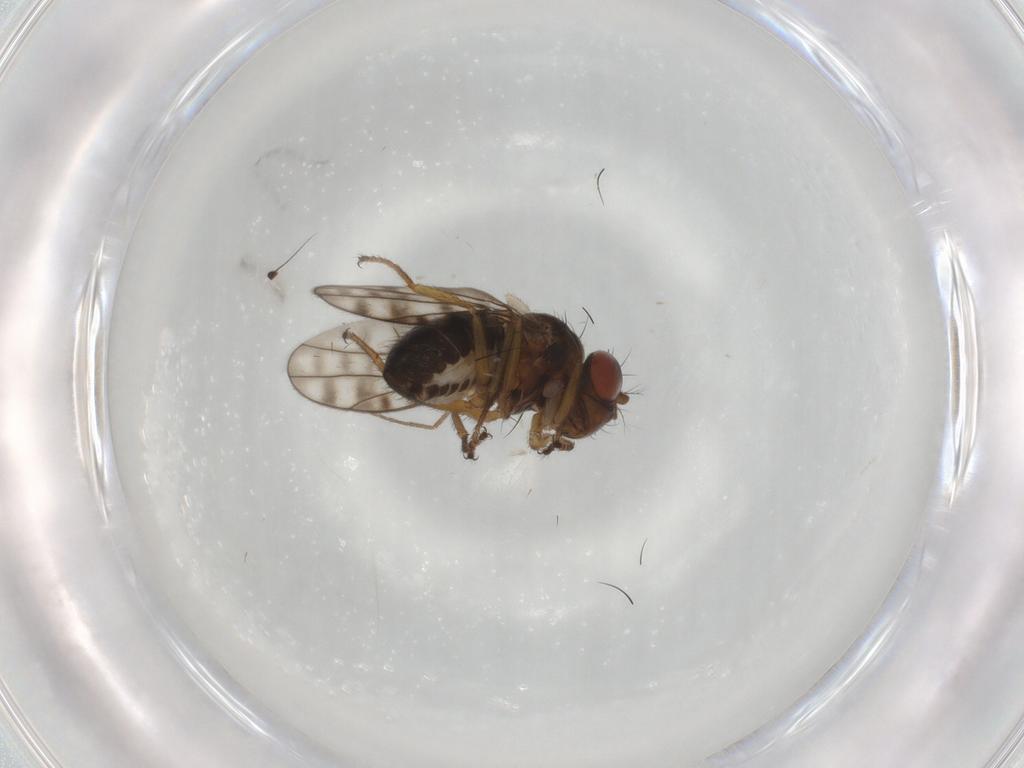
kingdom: Animalia
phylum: Arthropoda
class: Insecta
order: Diptera
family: Ephydridae
